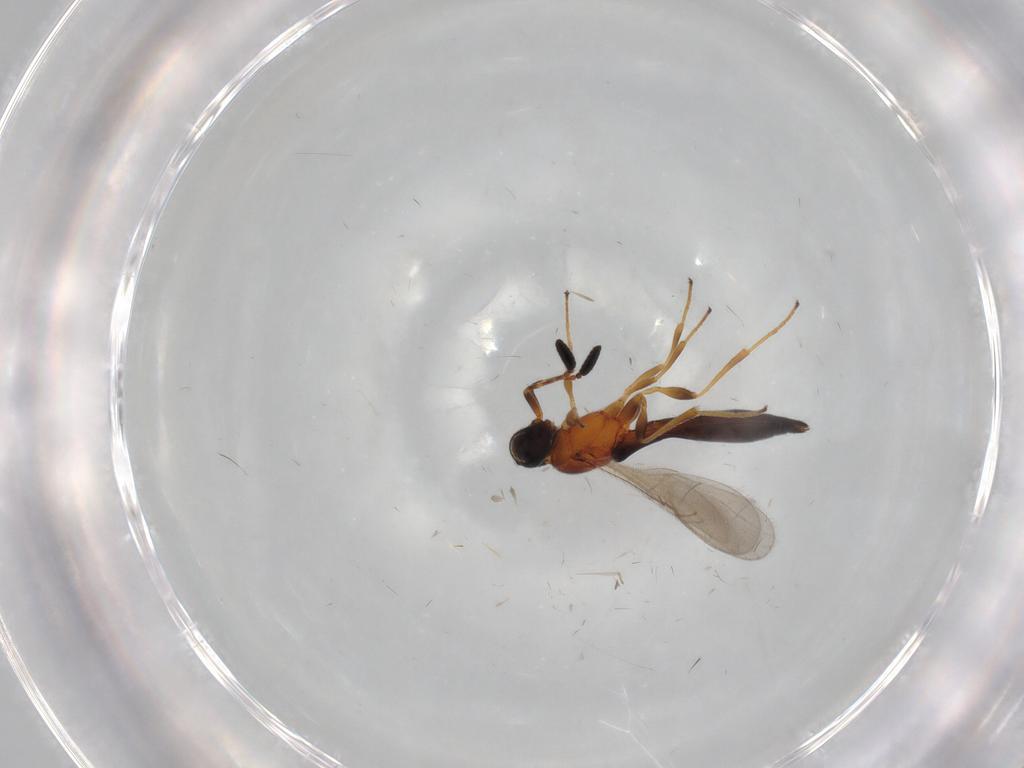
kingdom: Animalia
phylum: Arthropoda
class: Insecta
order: Hymenoptera
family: Scelionidae
